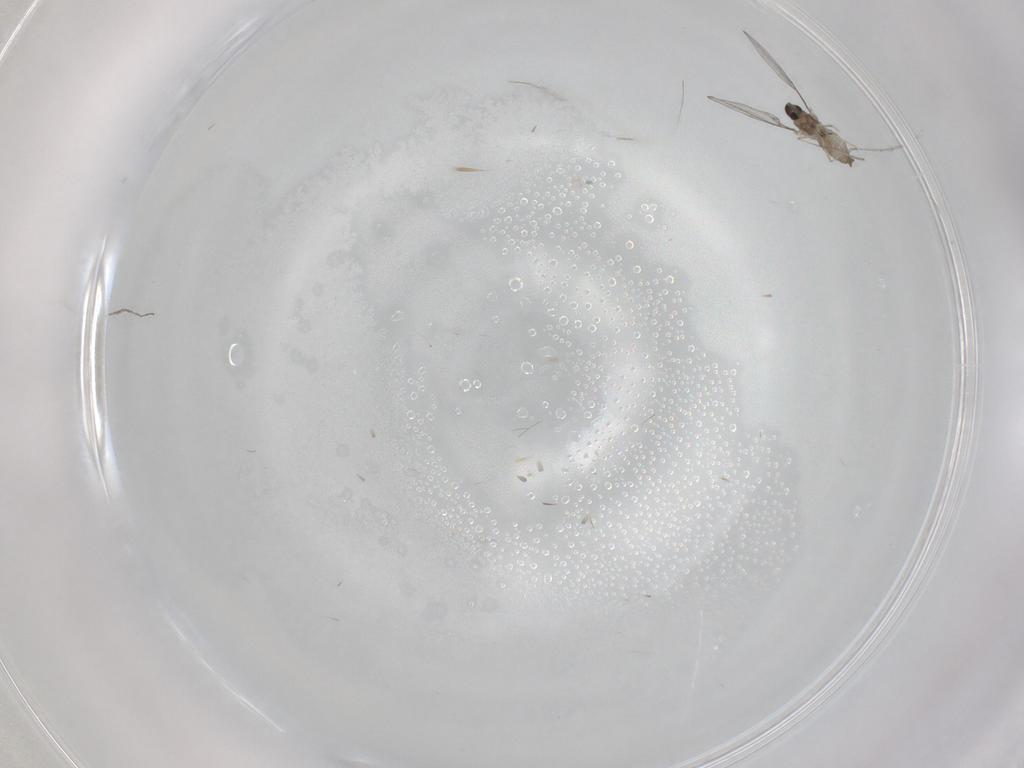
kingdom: Animalia
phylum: Arthropoda
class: Insecta
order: Diptera
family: Cecidomyiidae
